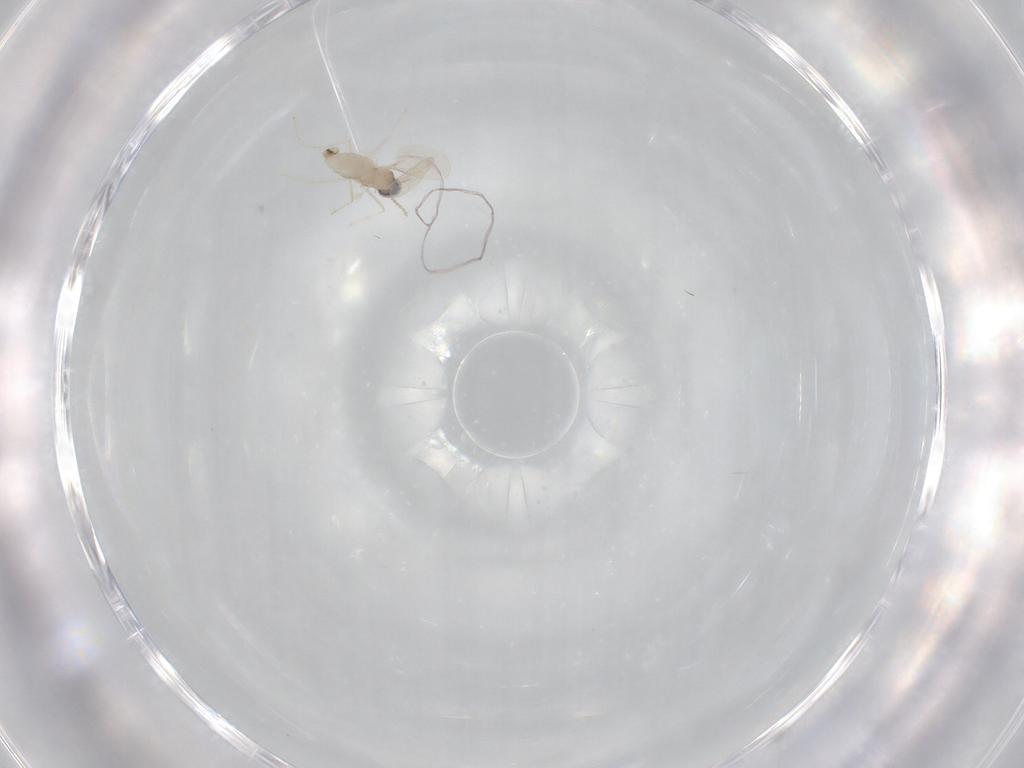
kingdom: Animalia
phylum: Arthropoda
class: Insecta
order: Diptera
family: Cecidomyiidae
